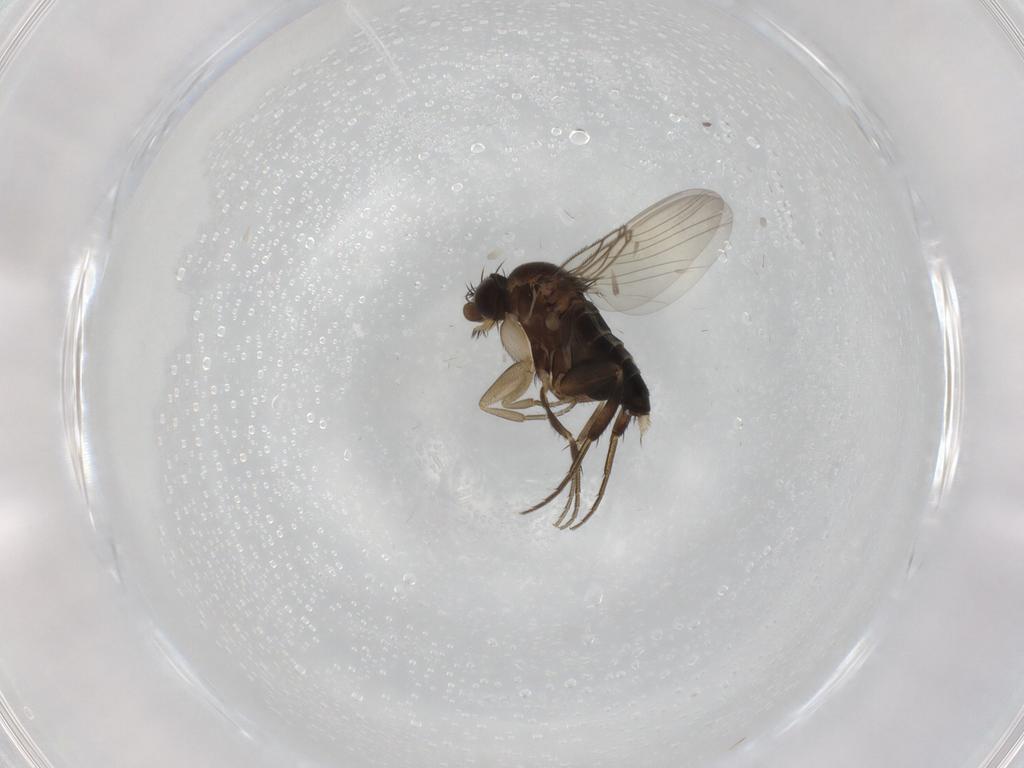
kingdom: Animalia
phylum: Arthropoda
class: Insecta
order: Diptera
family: Phoridae
